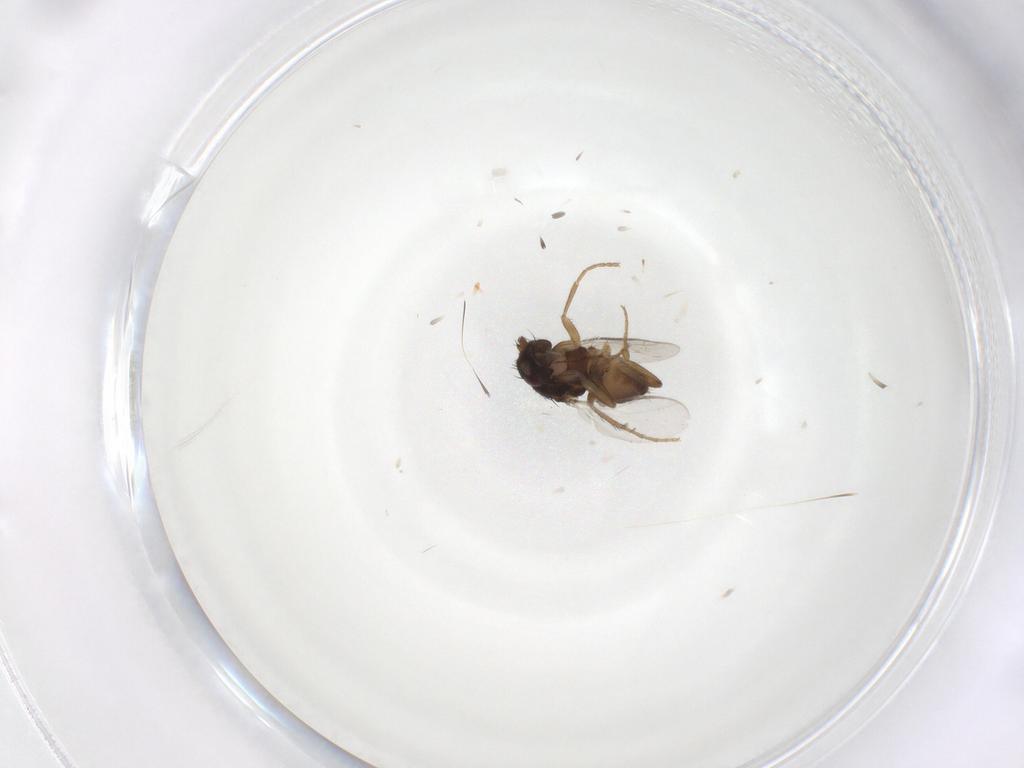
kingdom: Animalia
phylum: Arthropoda
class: Insecta
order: Diptera
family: Sphaeroceridae
